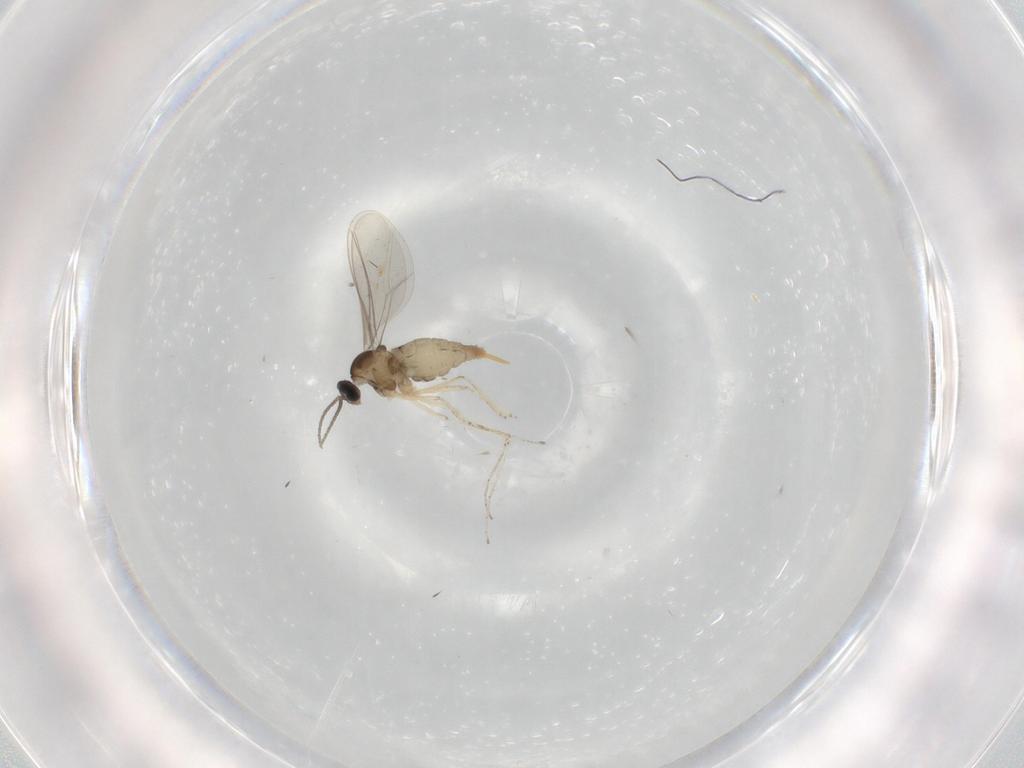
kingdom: Animalia
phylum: Arthropoda
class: Insecta
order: Diptera
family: Cecidomyiidae
